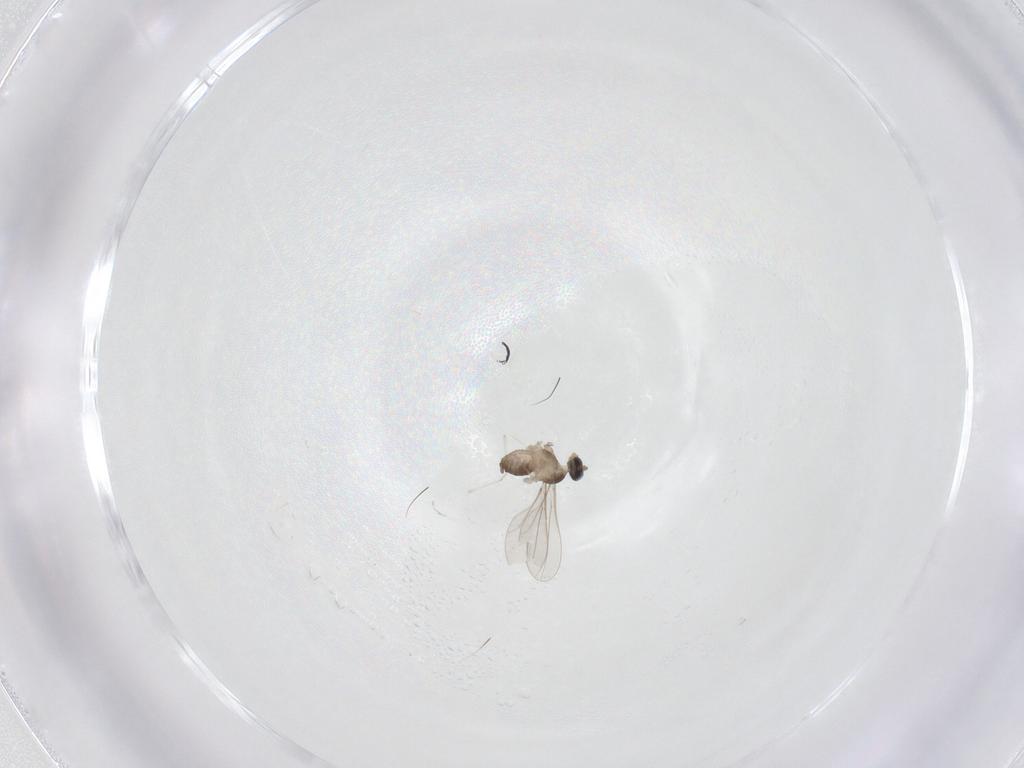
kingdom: Animalia
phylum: Arthropoda
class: Insecta
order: Diptera
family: Cecidomyiidae
